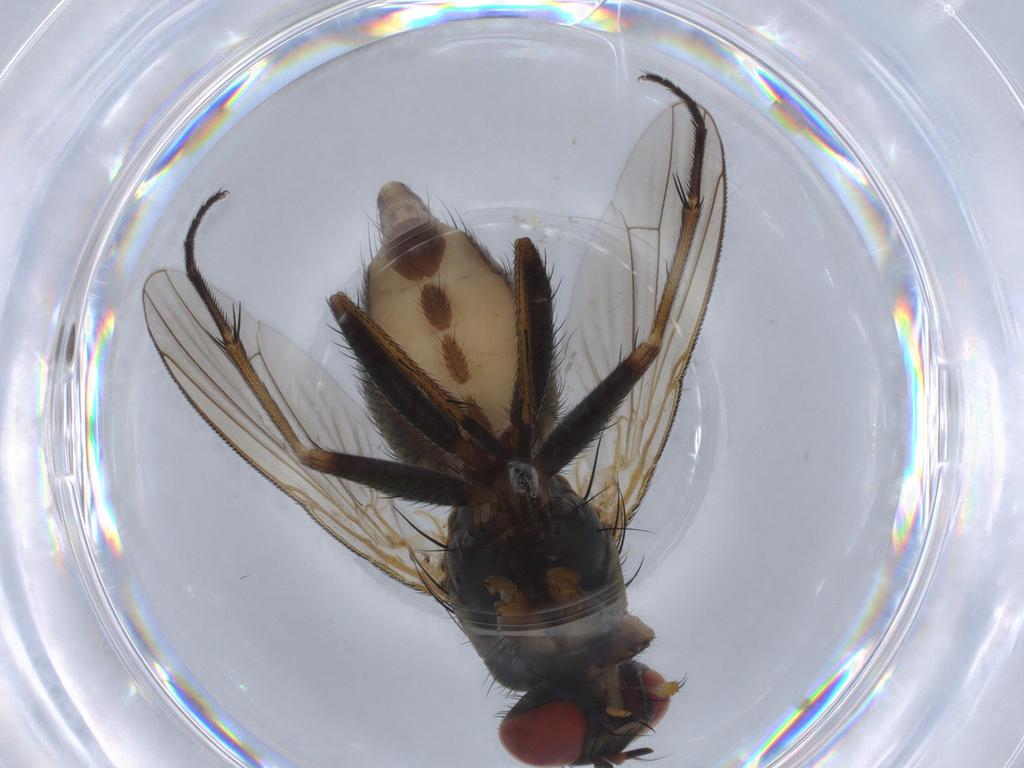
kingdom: Animalia
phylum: Arthropoda
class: Insecta
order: Diptera
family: Muscidae
